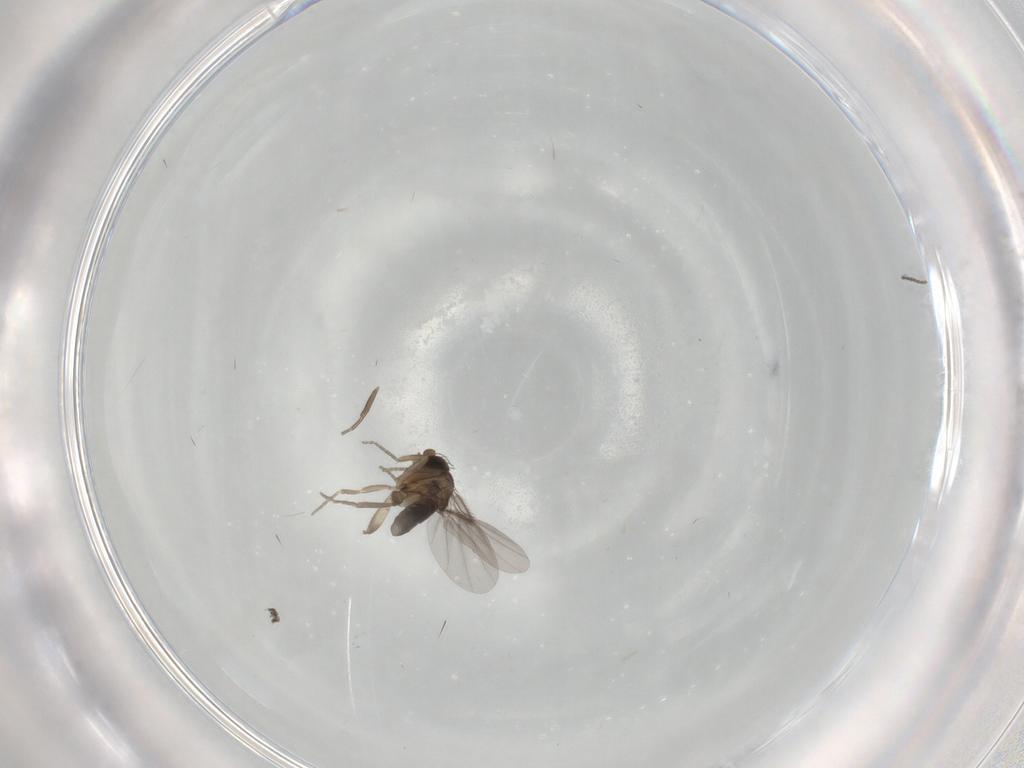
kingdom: Animalia
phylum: Arthropoda
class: Insecta
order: Diptera
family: Phoridae
